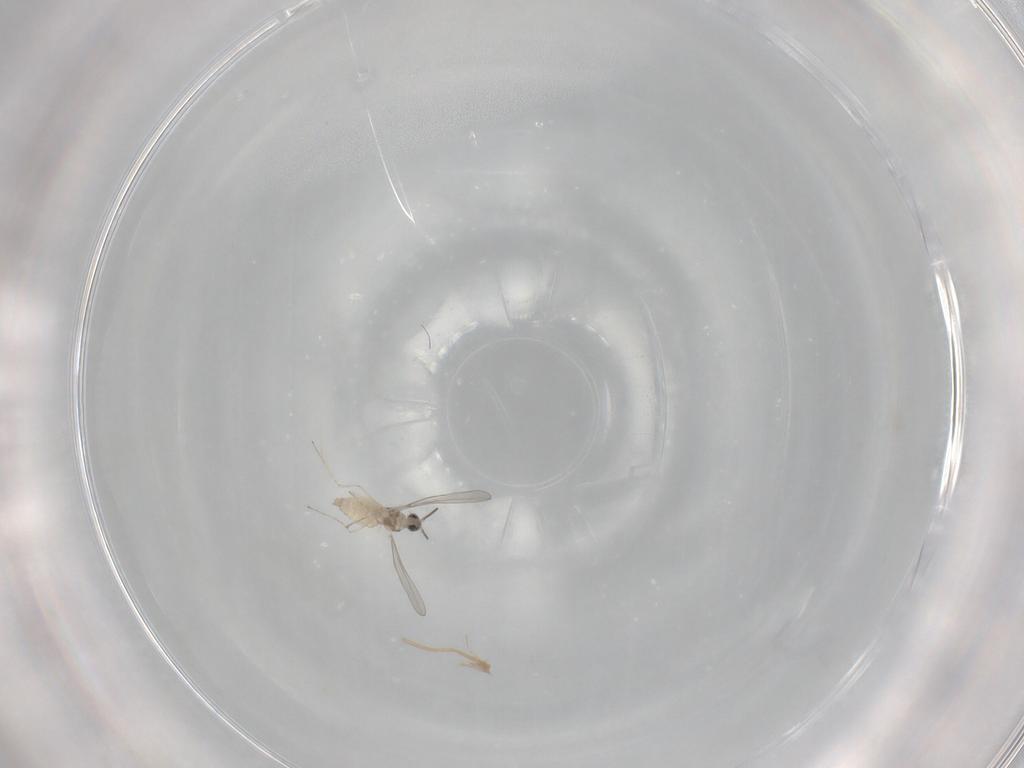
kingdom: Animalia
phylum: Arthropoda
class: Insecta
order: Diptera
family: Cecidomyiidae
